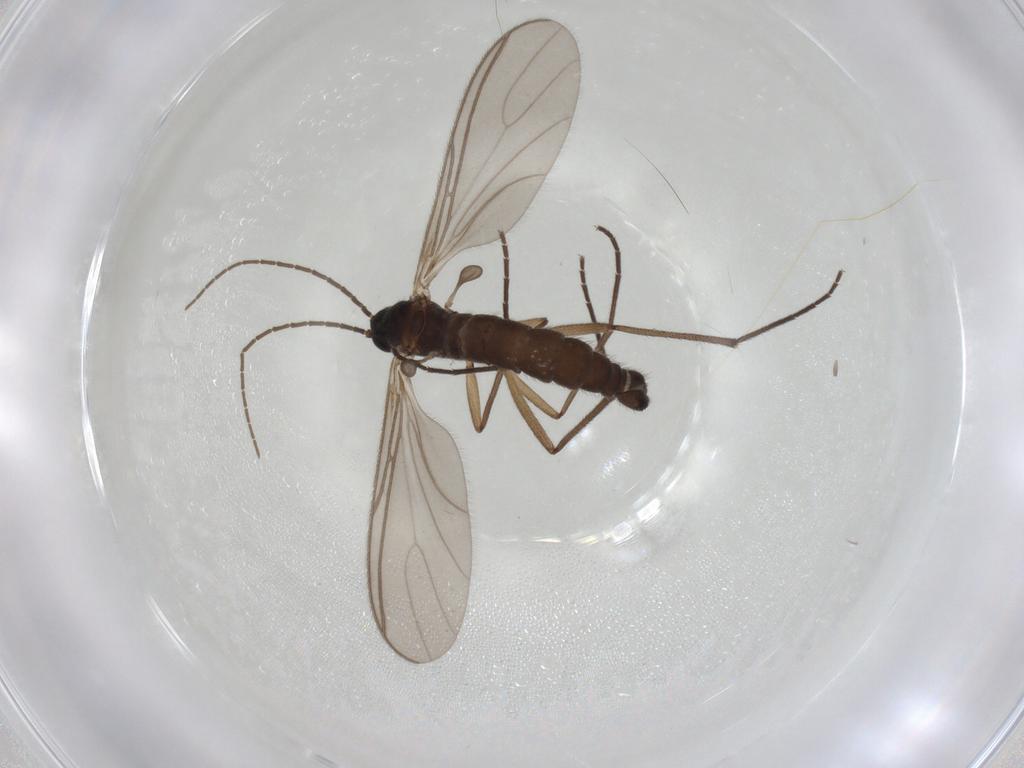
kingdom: Animalia
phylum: Arthropoda
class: Insecta
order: Diptera
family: Sciaridae
